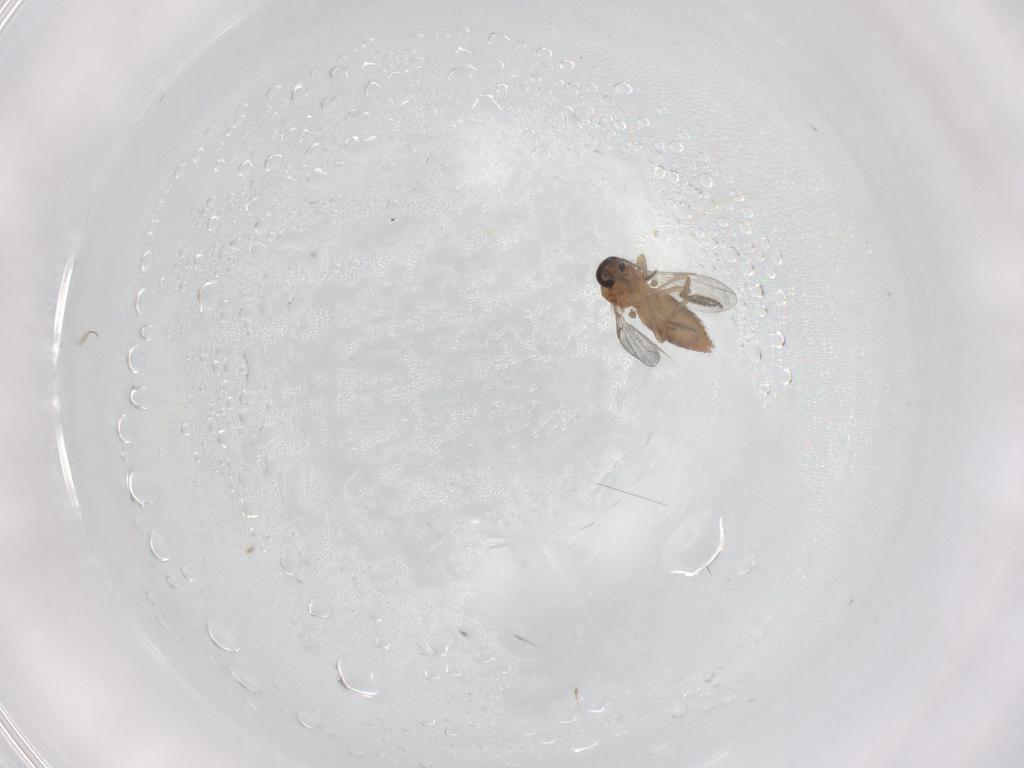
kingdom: Animalia
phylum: Arthropoda
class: Insecta
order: Diptera
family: Ceratopogonidae
